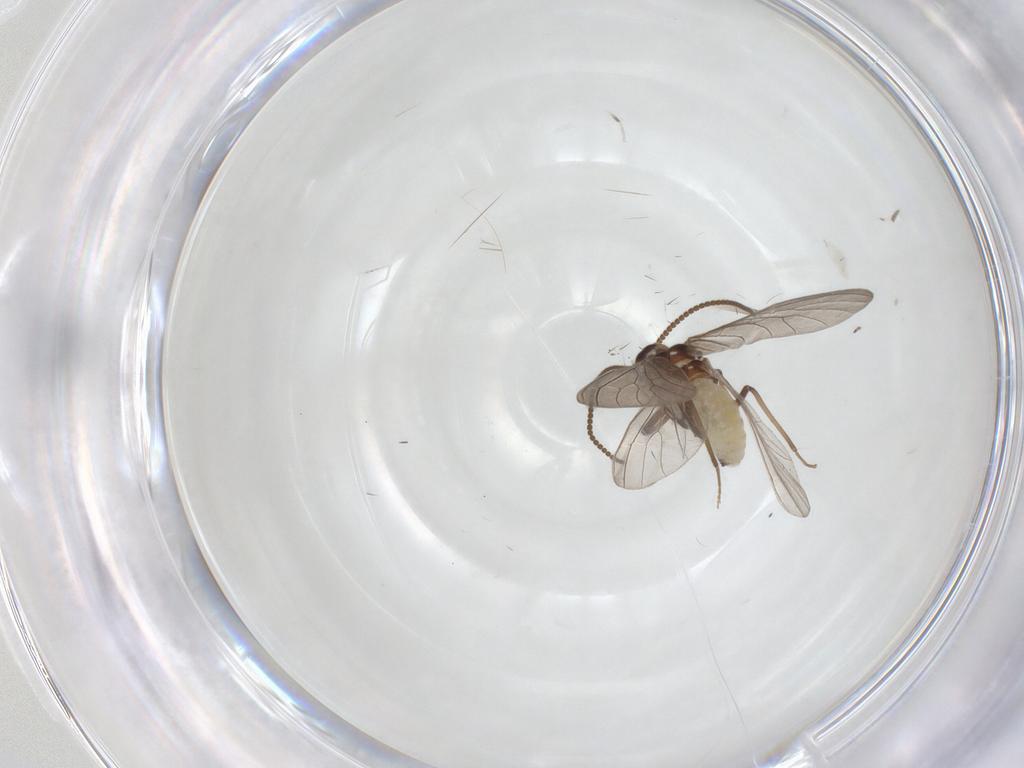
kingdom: Animalia
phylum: Arthropoda
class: Insecta
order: Neuroptera
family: Coniopterygidae
